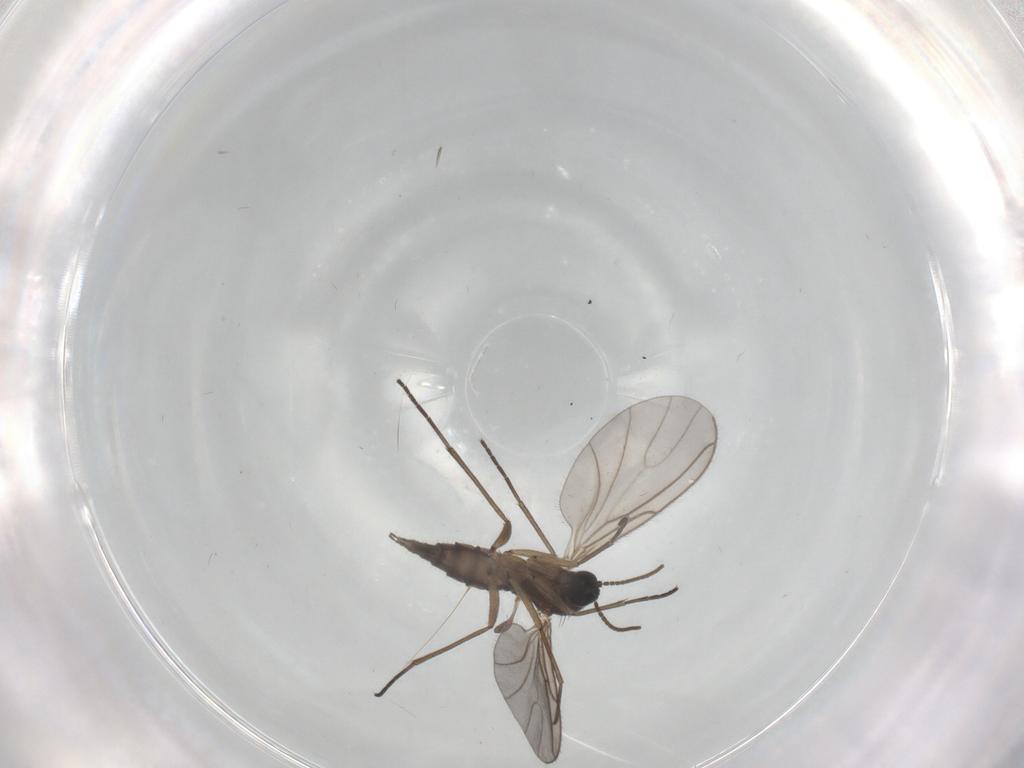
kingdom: Animalia
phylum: Arthropoda
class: Insecta
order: Diptera
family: Sciaridae
